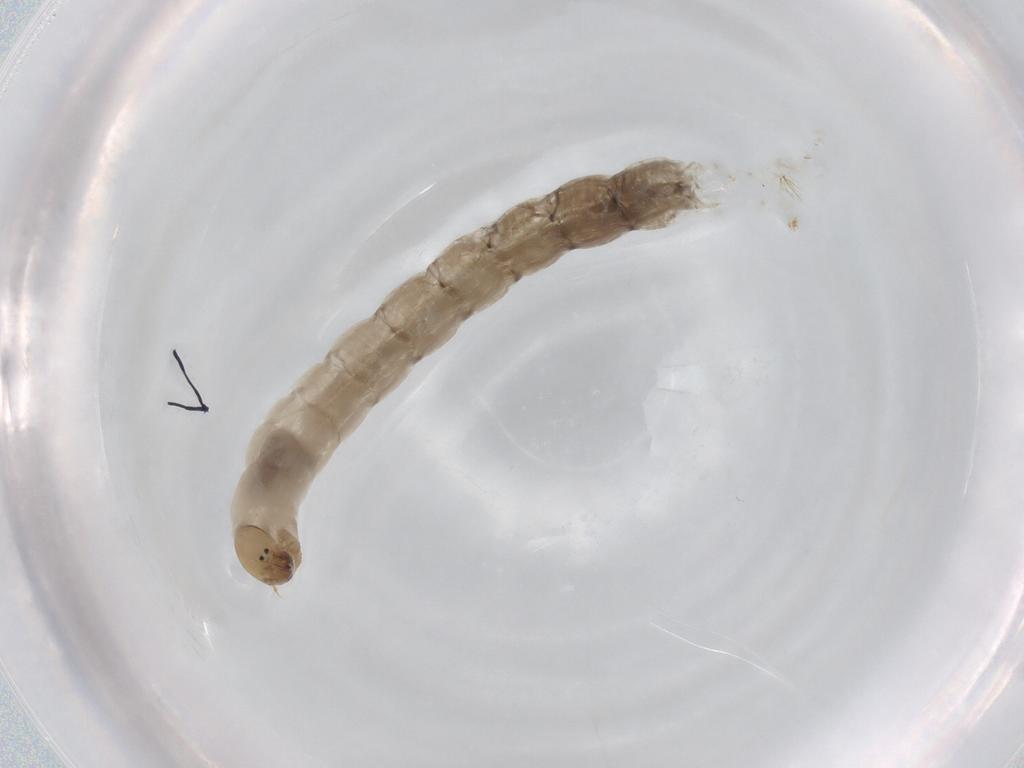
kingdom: Animalia
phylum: Arthropoda
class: Insecta
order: Diptera
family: Chironomidae
